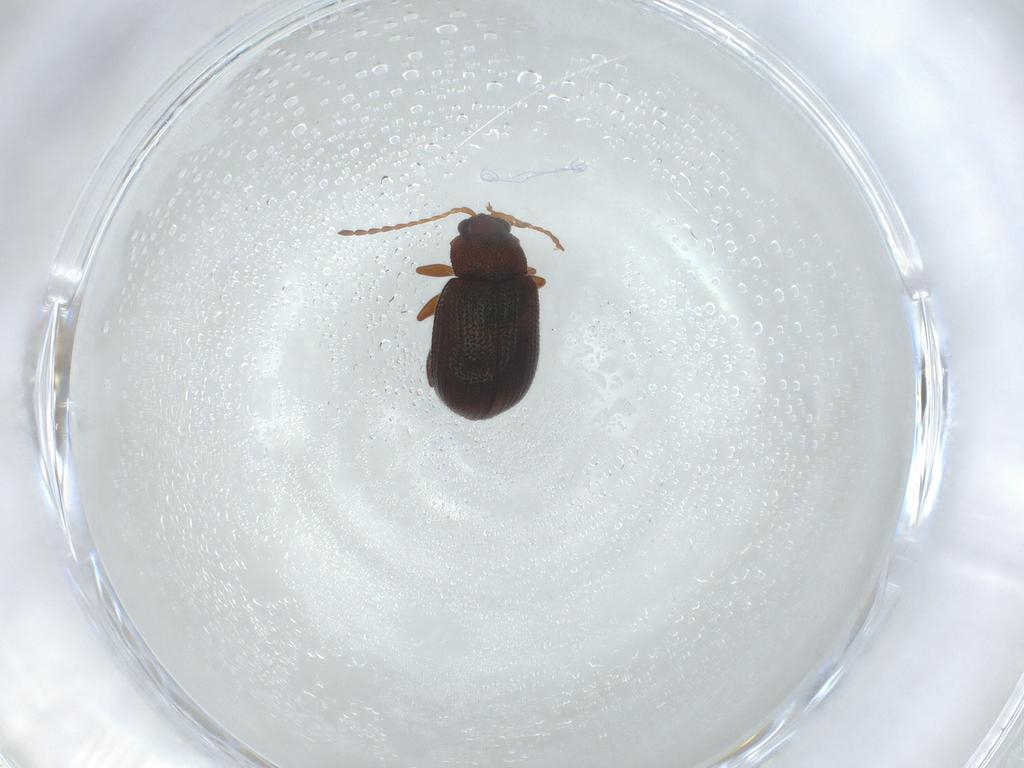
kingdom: Animalia
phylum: Arthropoda
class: Insecta
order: Coleoptera
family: Chrysomelidae
